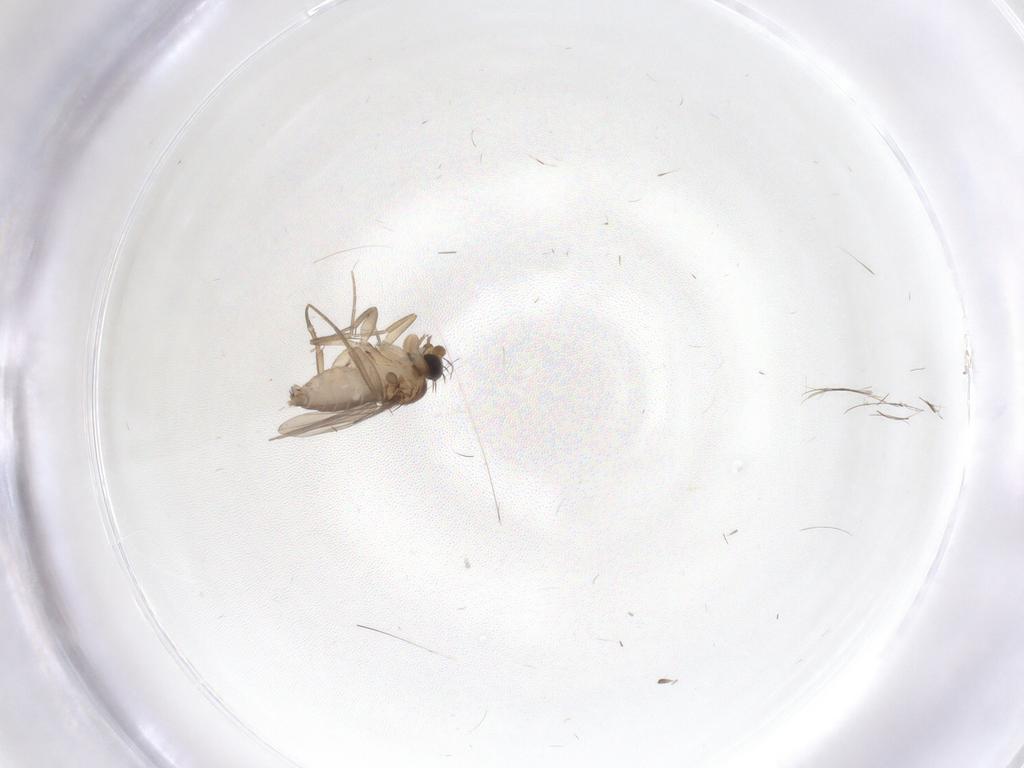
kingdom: Animalia
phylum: Arthropoda
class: Insecta
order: Diptera
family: Phoridae
